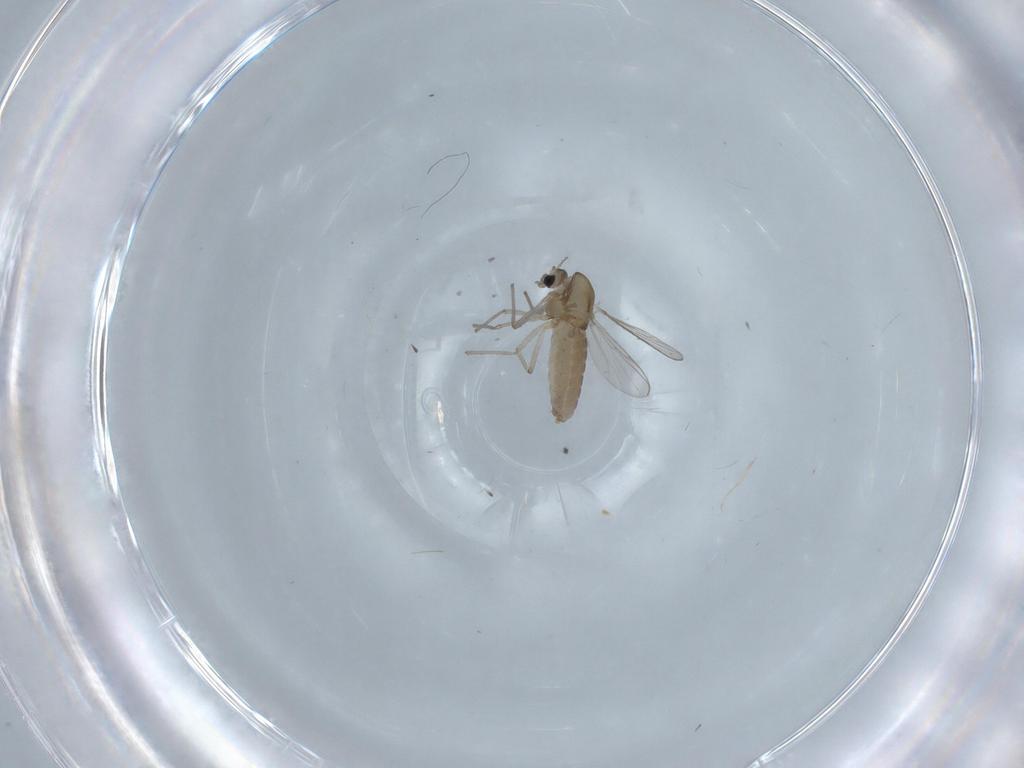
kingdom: Animalia
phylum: Arthropoda
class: Insecta
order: Diptera
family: Chironomidae
